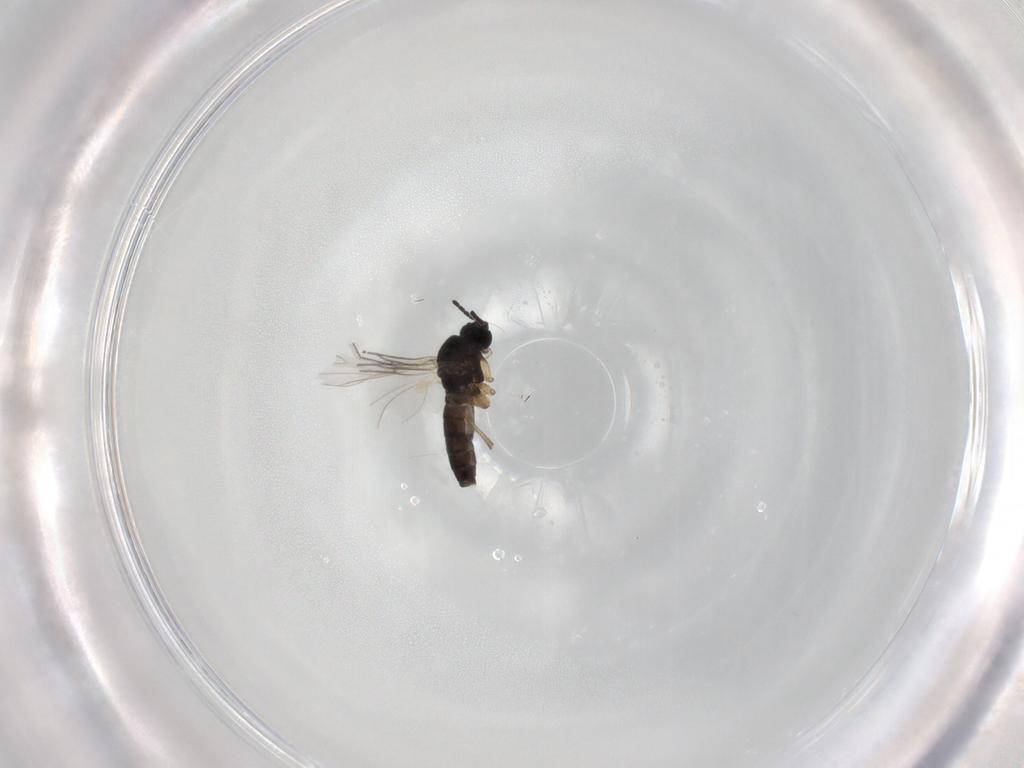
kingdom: Animalia
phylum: Arthropoda
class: Insecta
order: Diptera
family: Sciaridae
